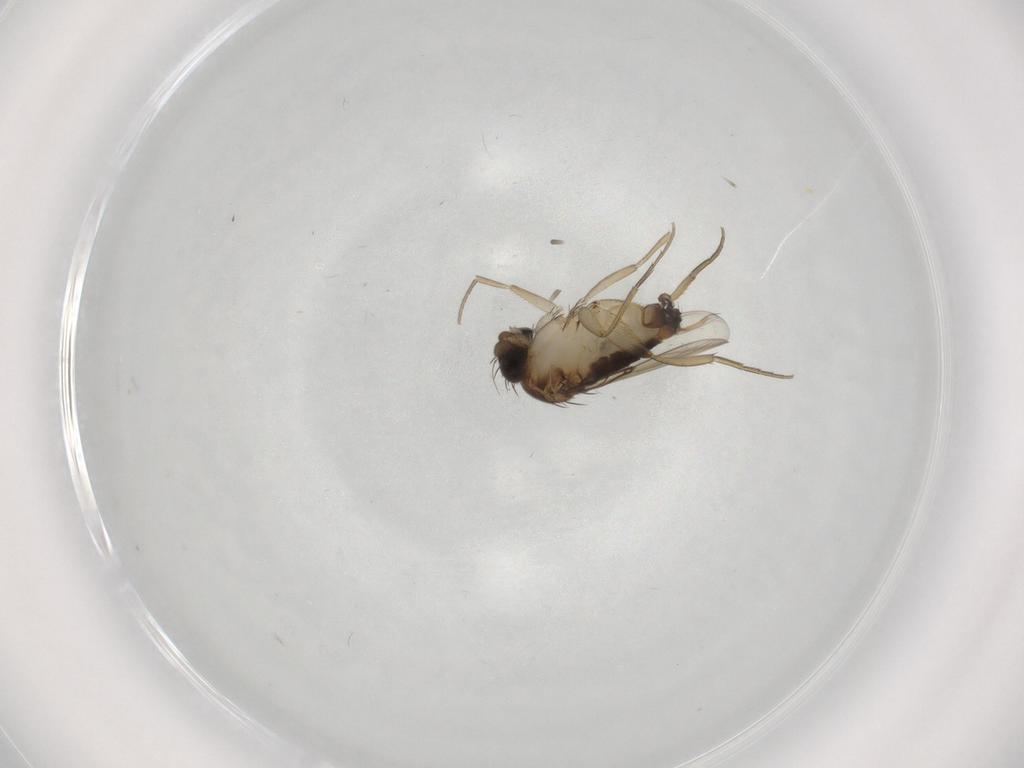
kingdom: Animalia
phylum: Arthropoda
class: Insecta
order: Diptera
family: Phoridae
